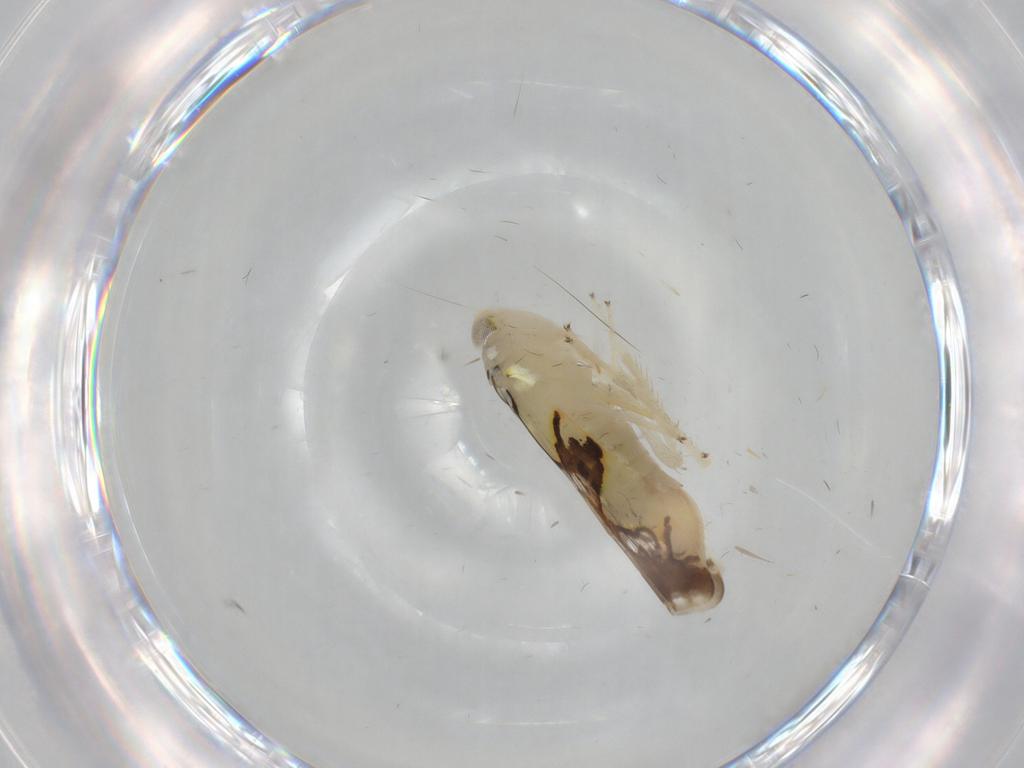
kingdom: Animalia
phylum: Arthropoda
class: Insecta
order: Hemiptera
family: Cicadellidae
